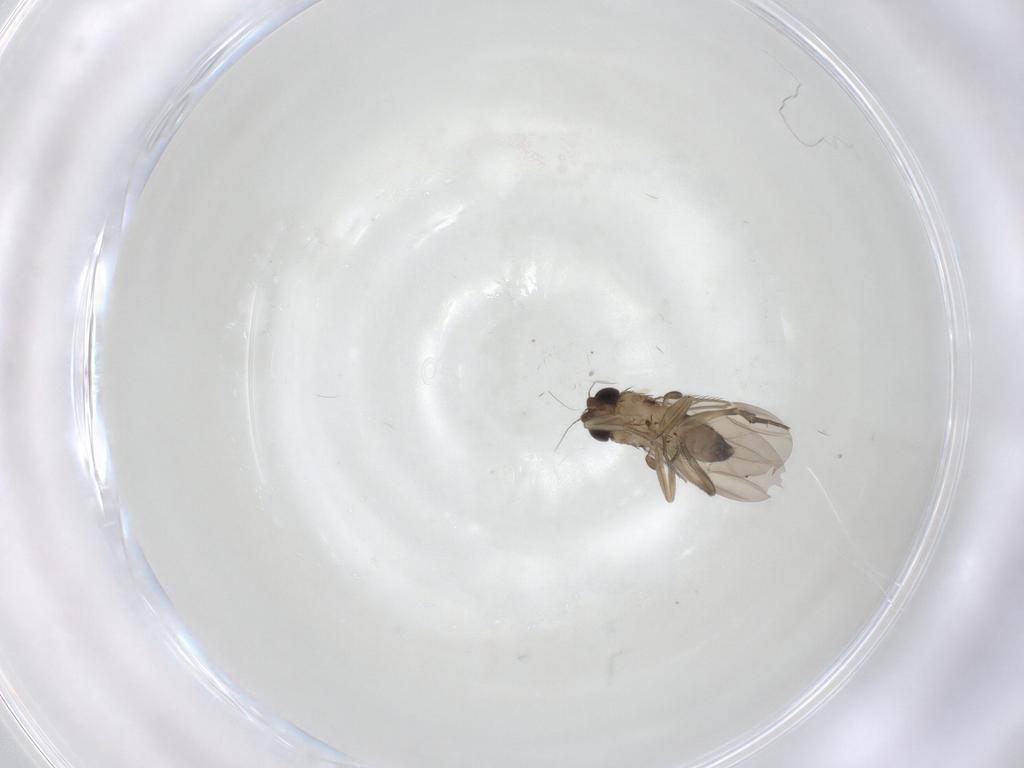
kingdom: Animalia
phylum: Arthropoda
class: Insecta
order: Diptera
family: Phoridae
